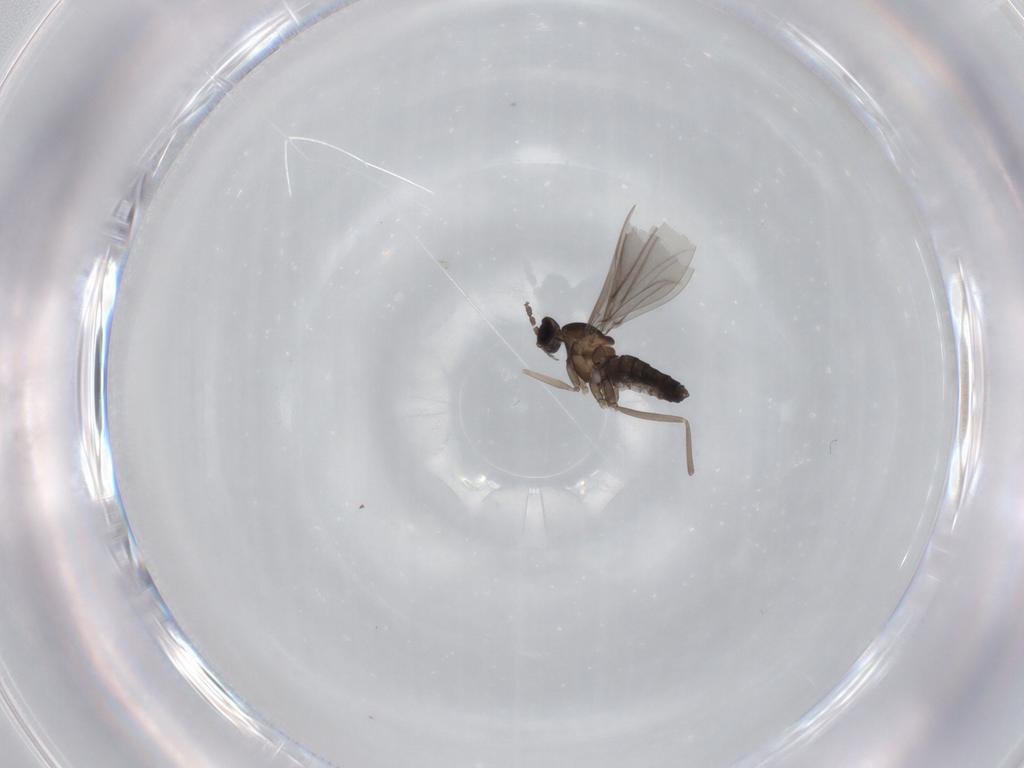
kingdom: Animalia
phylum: Arthropoda
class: Insecta
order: Diptera
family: Cecidomyiidae
